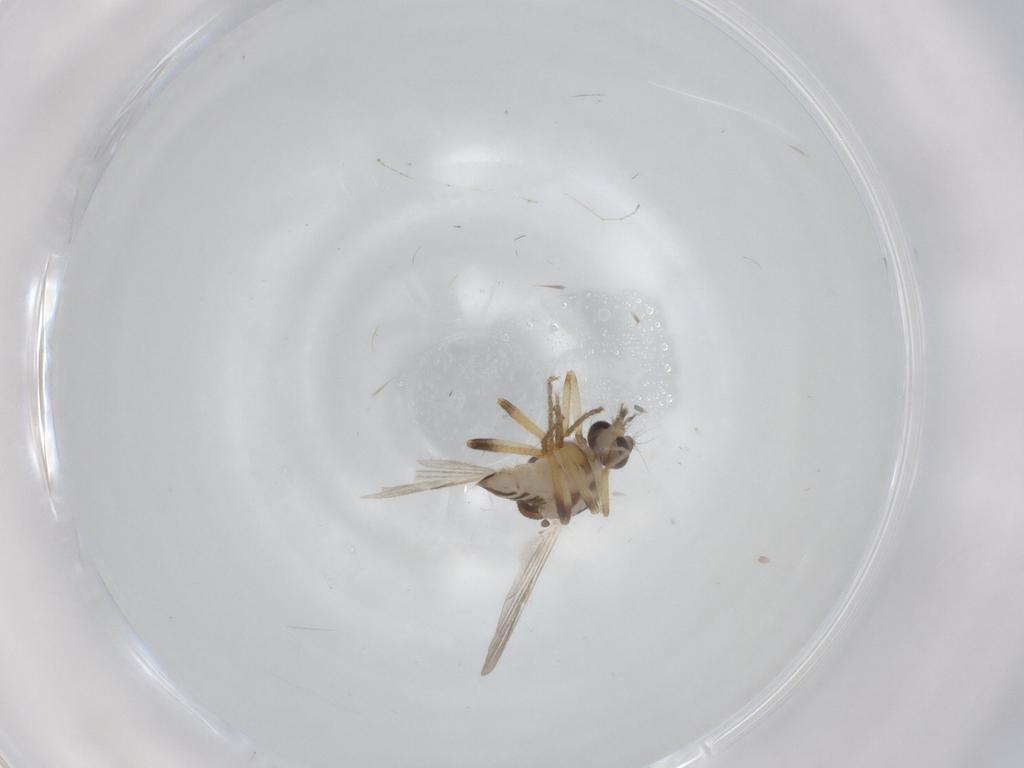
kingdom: Animalia
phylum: Arthropoda
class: Insecta
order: Diptera
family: Ceratopogonidae
